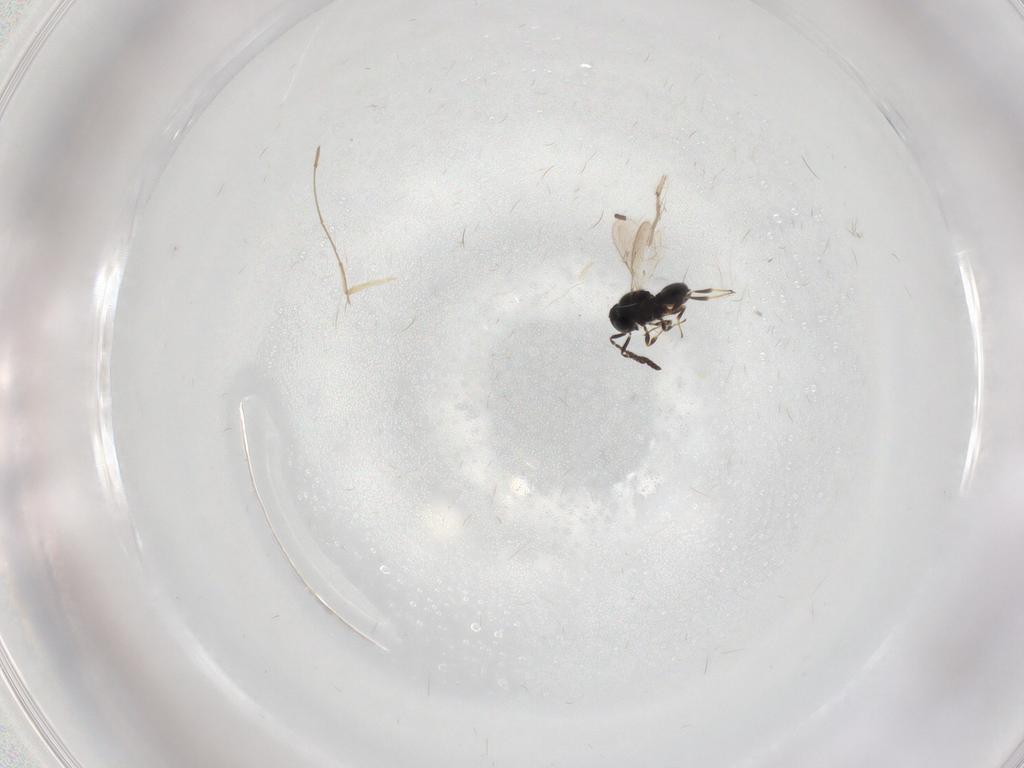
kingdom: Animalia
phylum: Arthropoda
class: Insecta
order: Hymenoptera
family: Scelionidae
